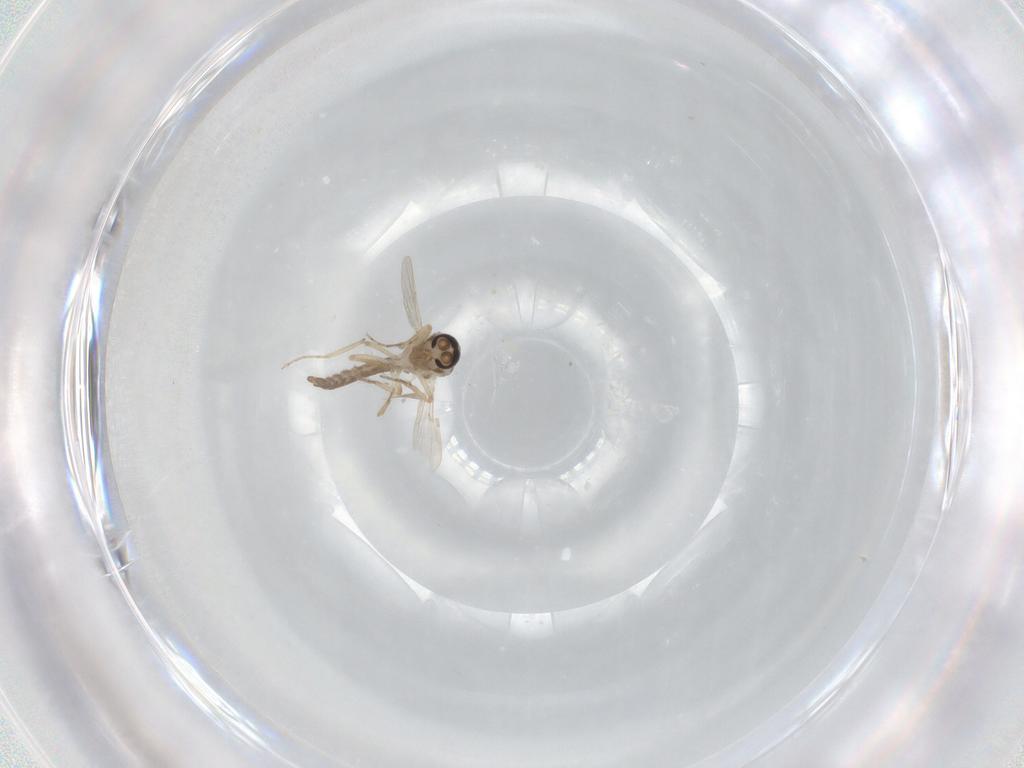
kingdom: Animalia
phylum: Arthropoda
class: Insecta
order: Diptera
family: Ceratopogonidae
